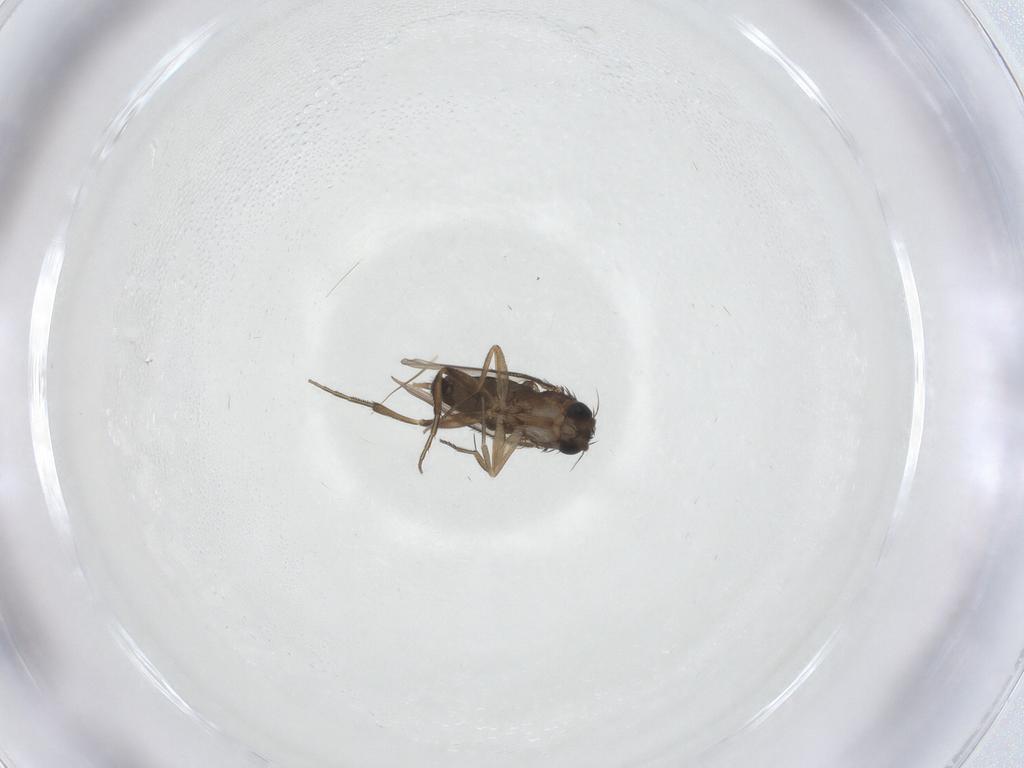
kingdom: Animalia
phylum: Arthropoda
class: Insecta
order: Diptera
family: Phoridae
